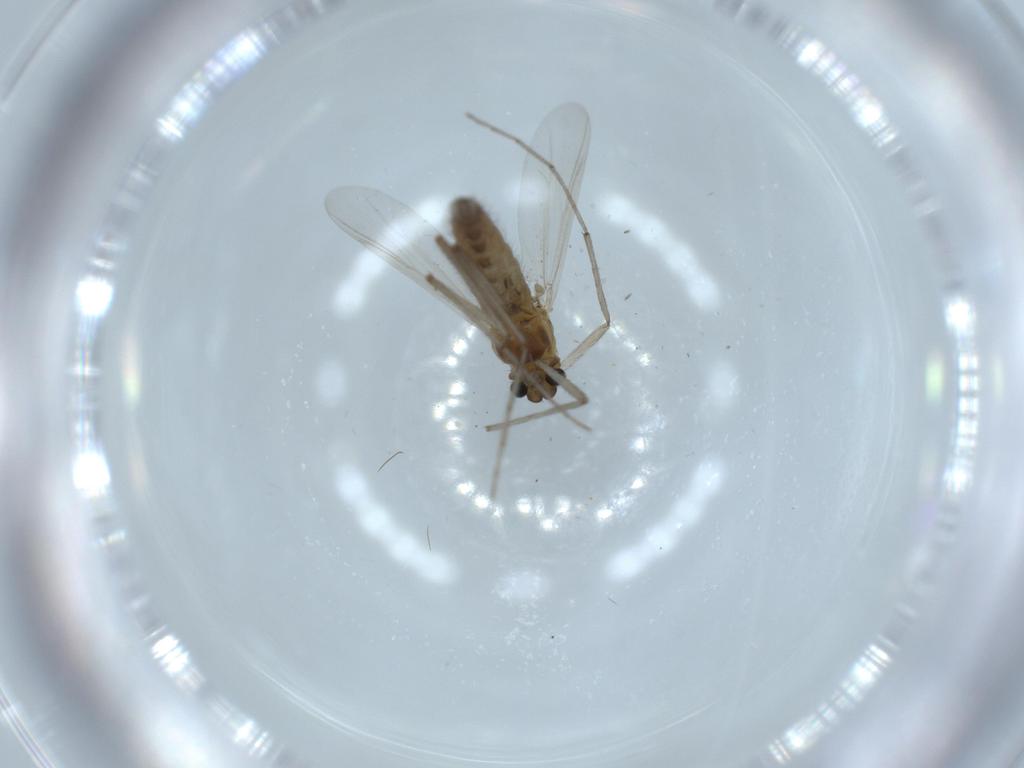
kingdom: Animalia
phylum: Arthropoda
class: Insecta
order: Diptera
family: Chironomidae
